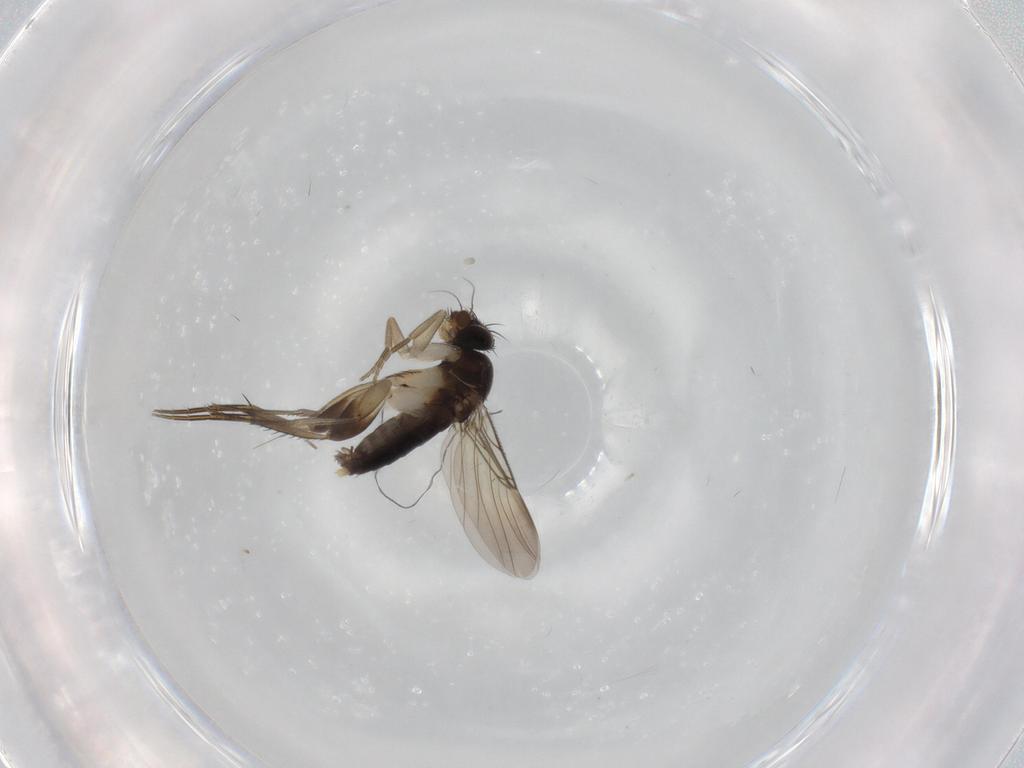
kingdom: Animalia
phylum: Arthropoda
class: Insecta
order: Diptera
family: Phoridae
